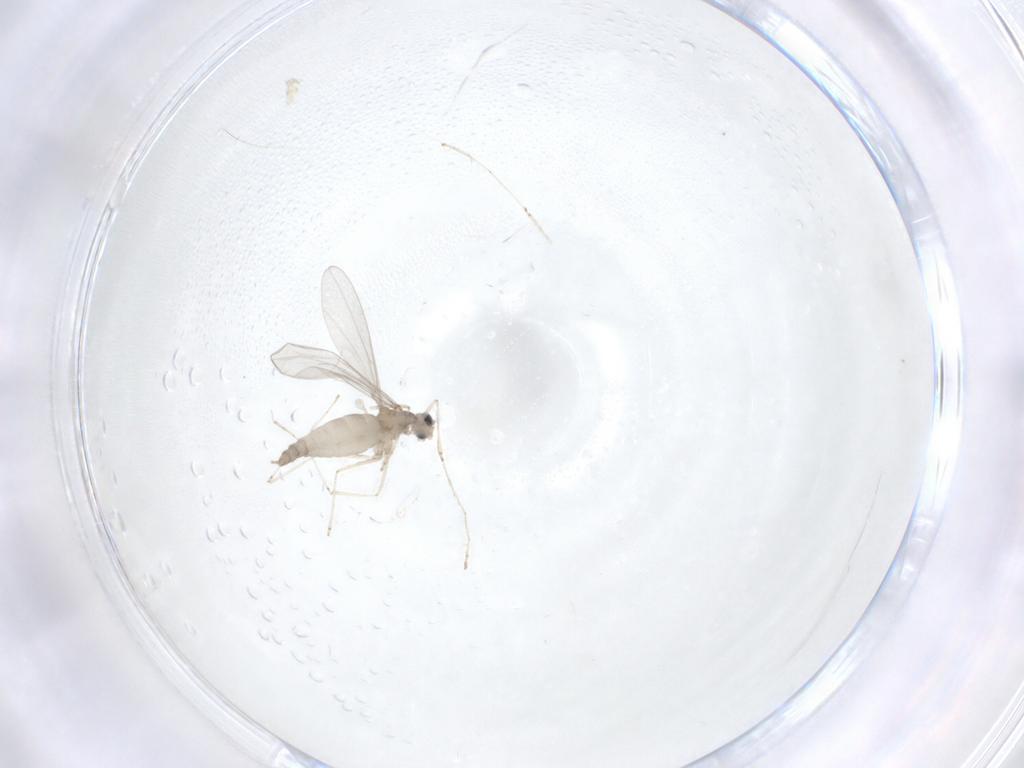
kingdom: Animalia
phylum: Arthropoda
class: Insecta
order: Diptera
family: Cecidomyiidae
